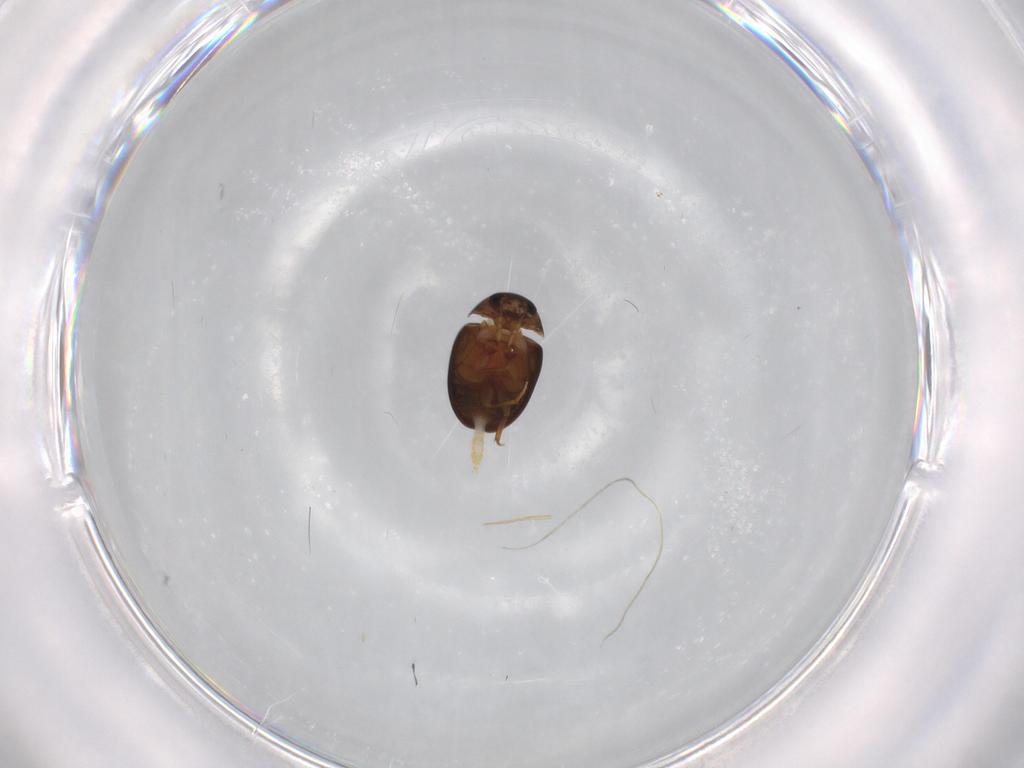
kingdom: Animalia
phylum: Arthropoda
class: Insecta
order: Coleoptera
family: Phalacridae
